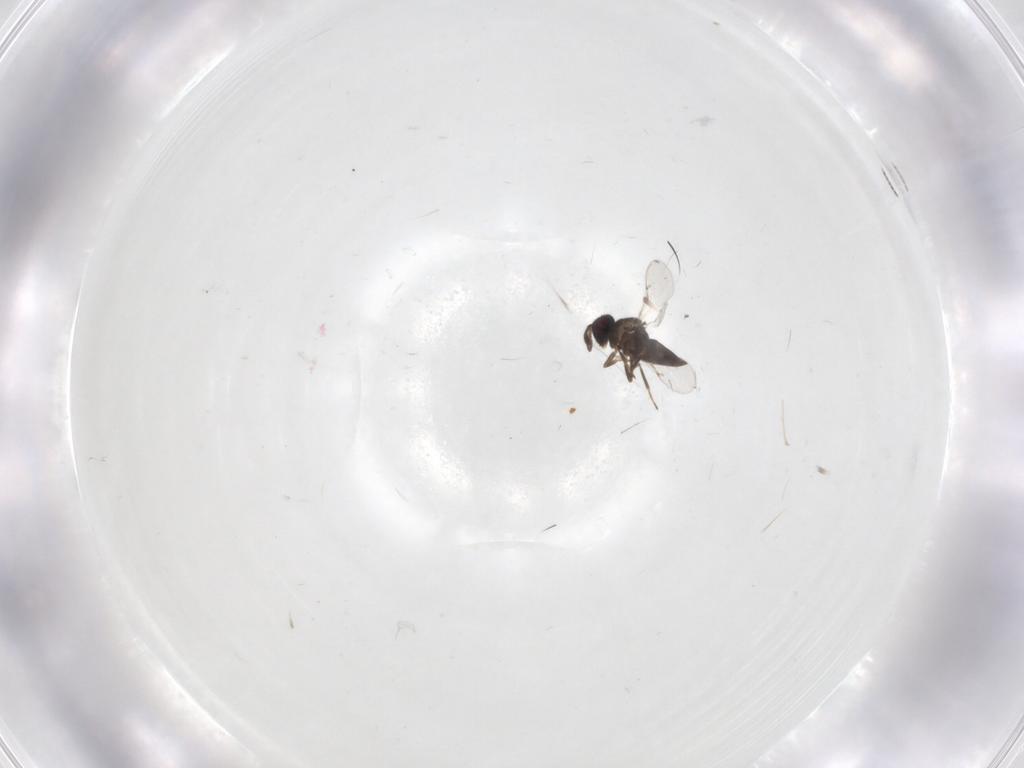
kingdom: Animalia
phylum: Arthropoda
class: Insecta
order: Hymenoptera
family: Aphelinidae
